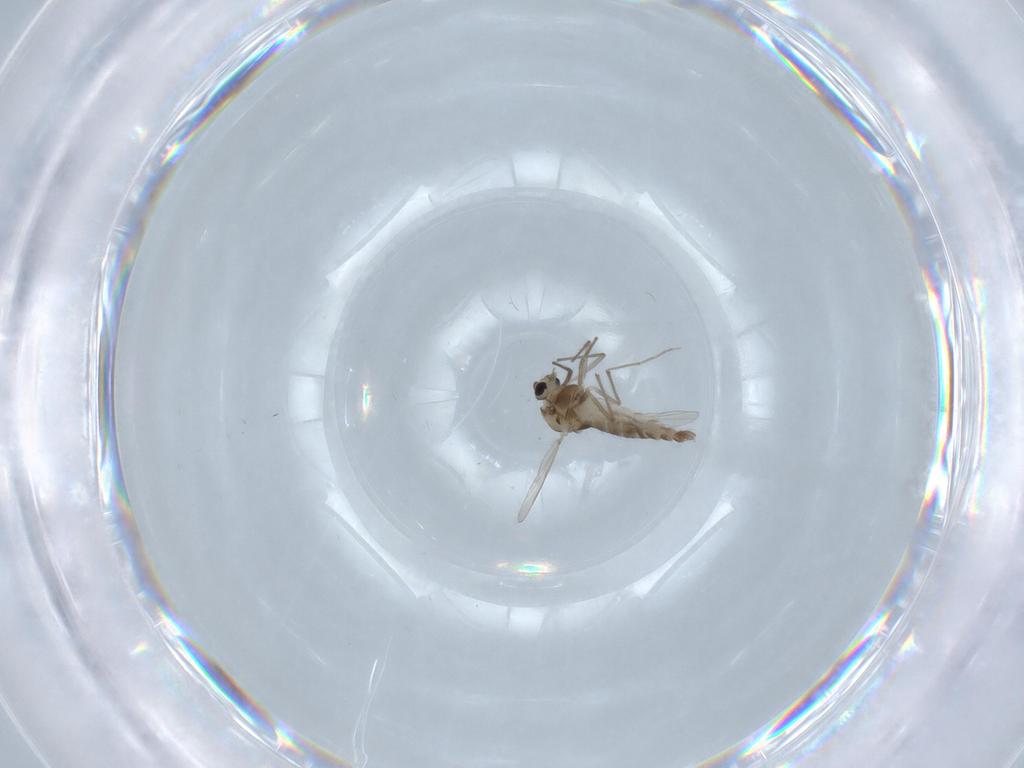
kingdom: Animalia
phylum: Arthropoda
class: Insecta
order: Diptera
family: Chironomidae
